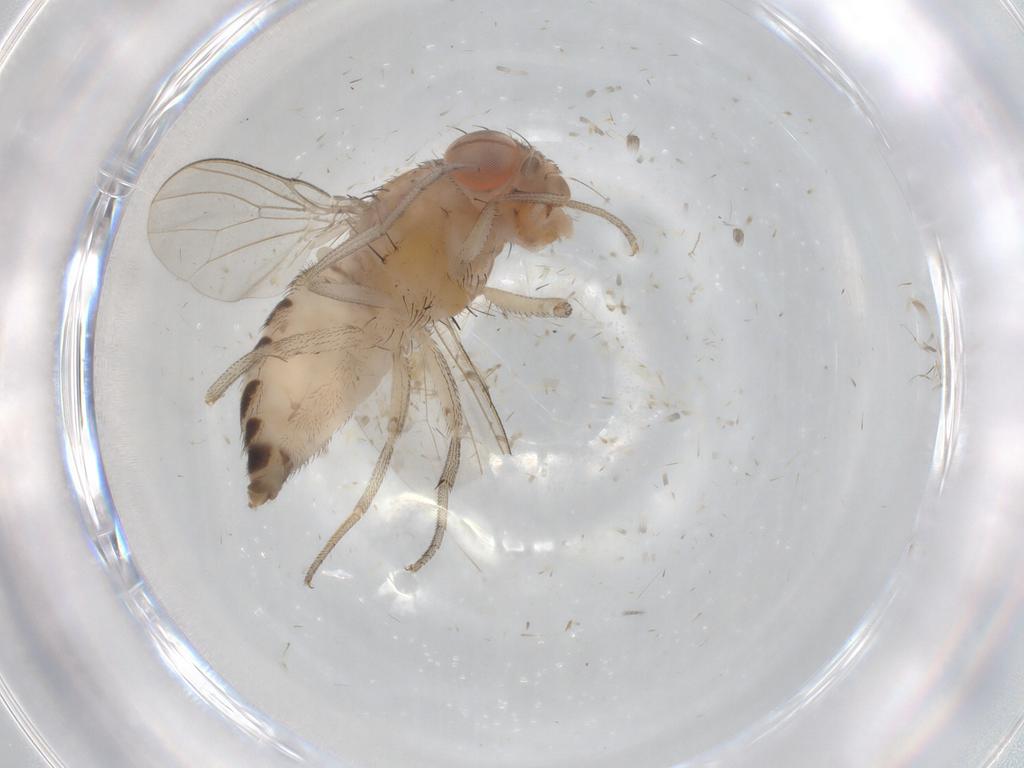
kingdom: Animalia
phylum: Arthropoda
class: Insecta
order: Diptera
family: Drosophilidae
